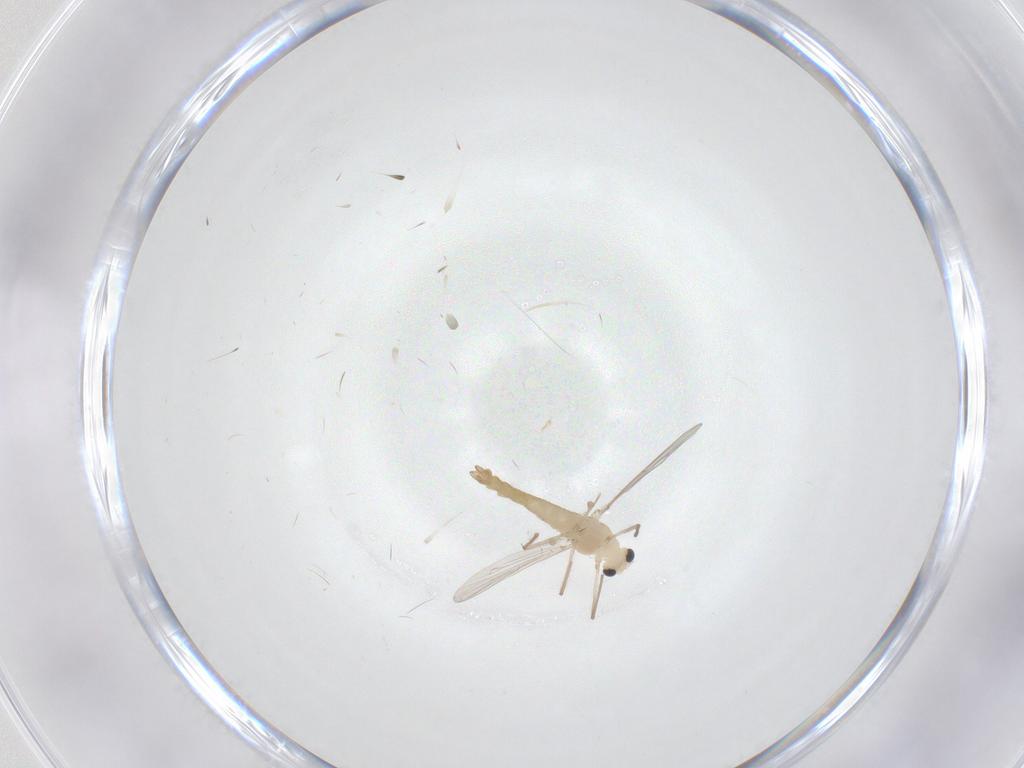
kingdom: Animalia
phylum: Arthropoda
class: Insecta
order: Diptera
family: Chironomidae
